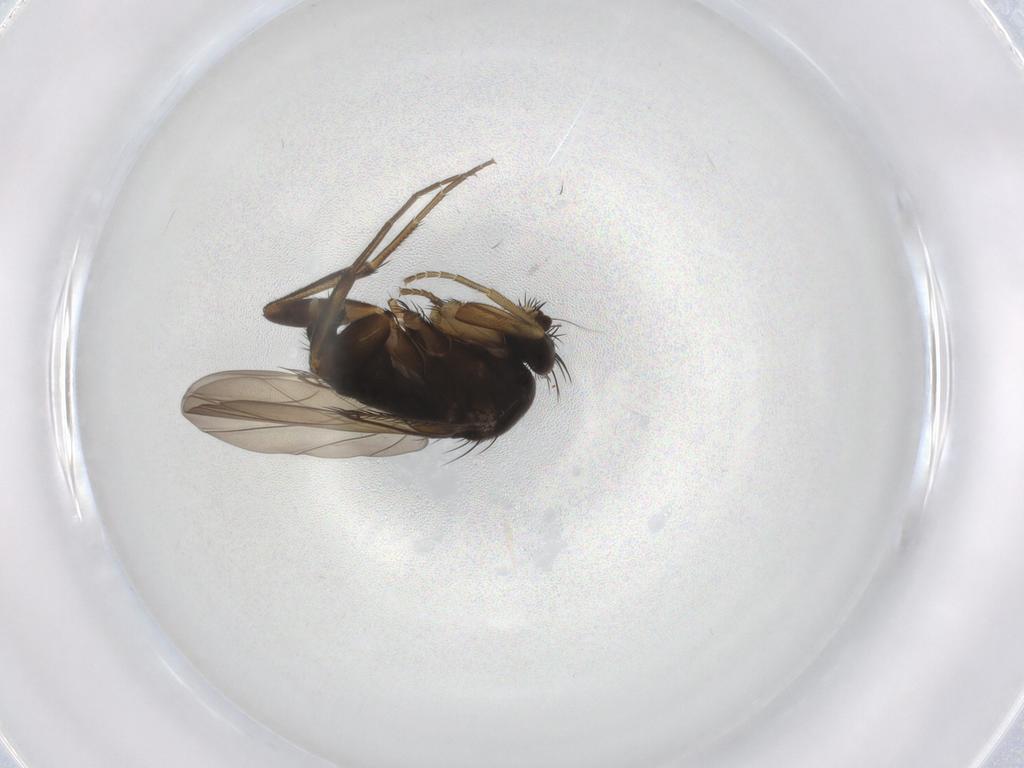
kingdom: Animalia
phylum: Arthropoda
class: Insecta
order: Diptera
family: Phoridae
